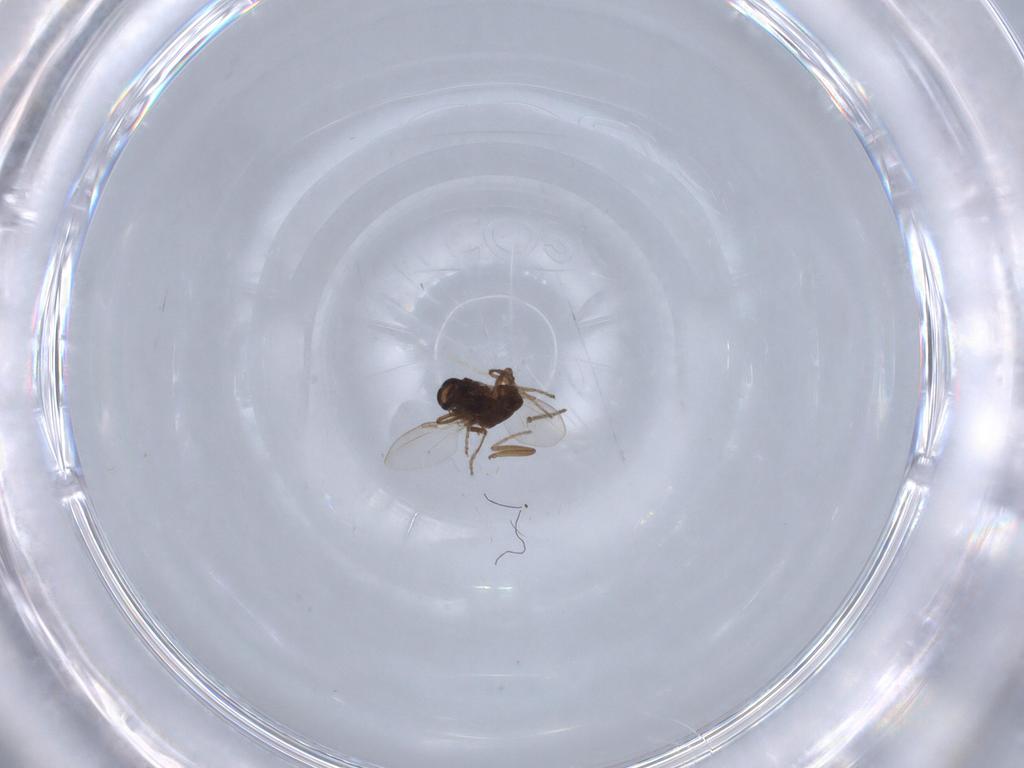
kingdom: Animalia
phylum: Arthropoda
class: Insecta
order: Diptera
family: Ceratopogonidae
